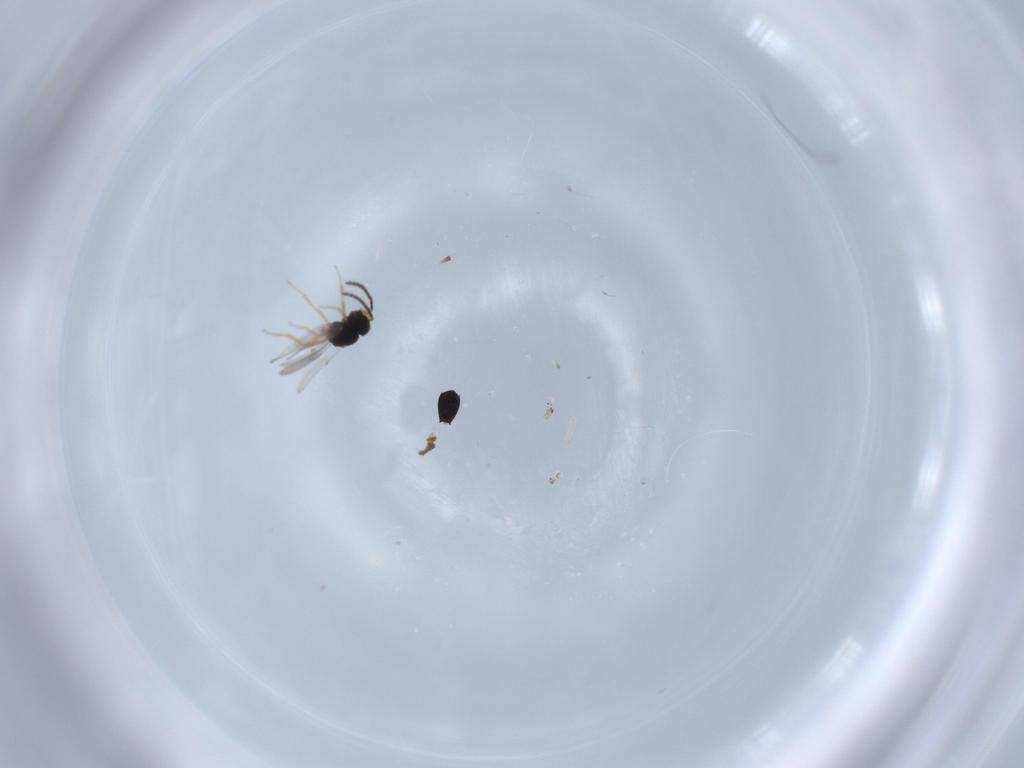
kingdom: Animalia
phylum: Arthropoda
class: Insecta
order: Hymenoptera
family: Scelionidae
